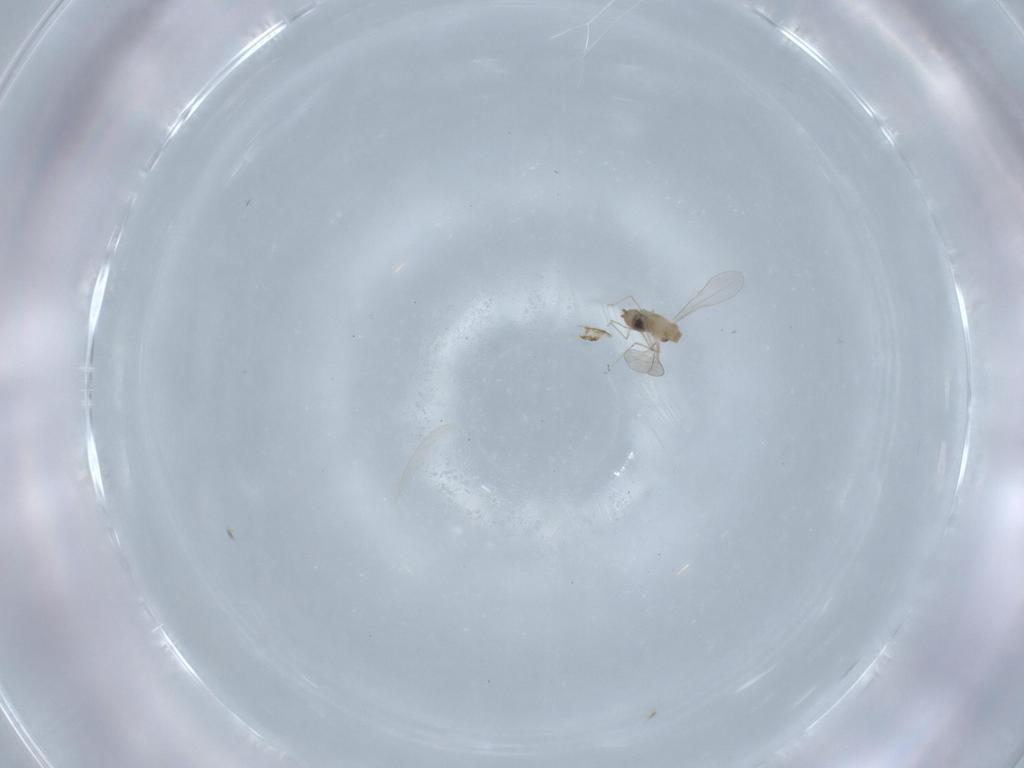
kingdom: Animalia
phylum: Arthropoda
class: Insecta
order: Diptera
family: Cecidomyiidae
